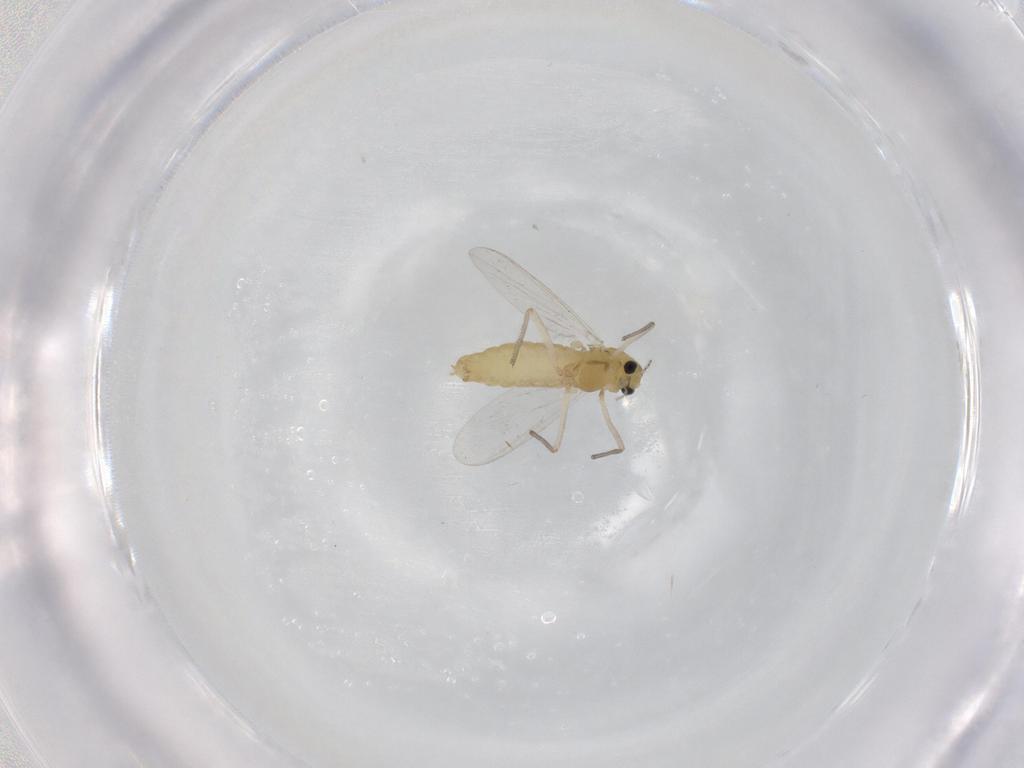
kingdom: Animalia
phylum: Arthropoda
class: Insecta
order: Diptera
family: Chironomidae
